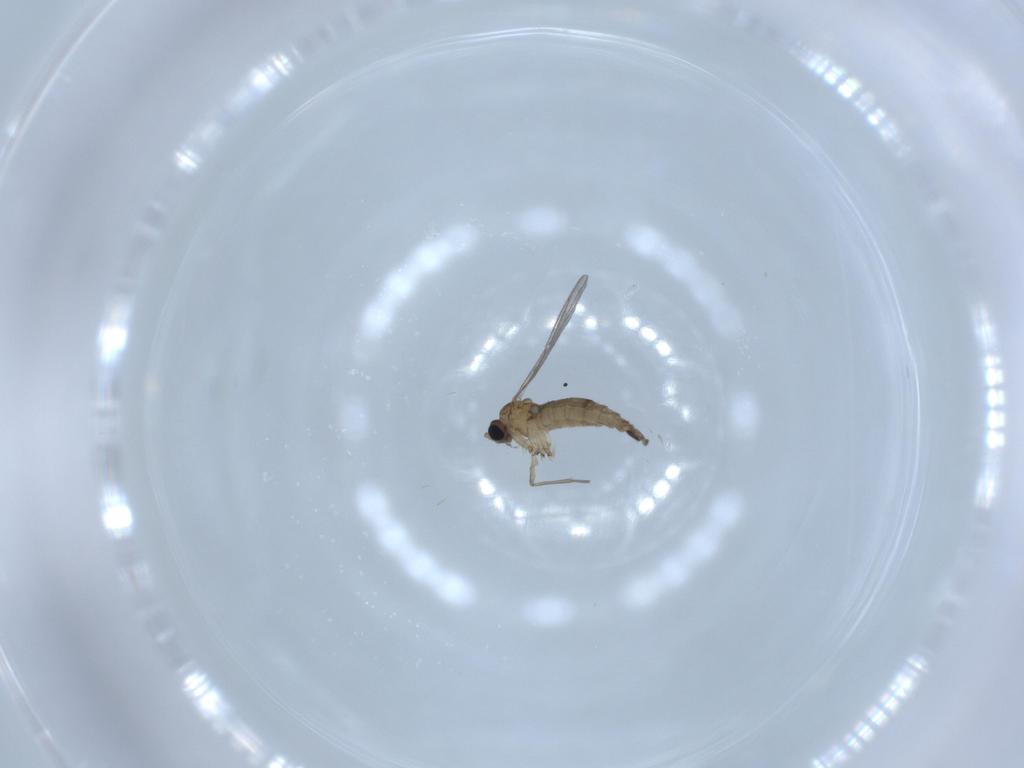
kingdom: Animalia
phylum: Arthropoda
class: Insecta
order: Diptera
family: Sciaridae
